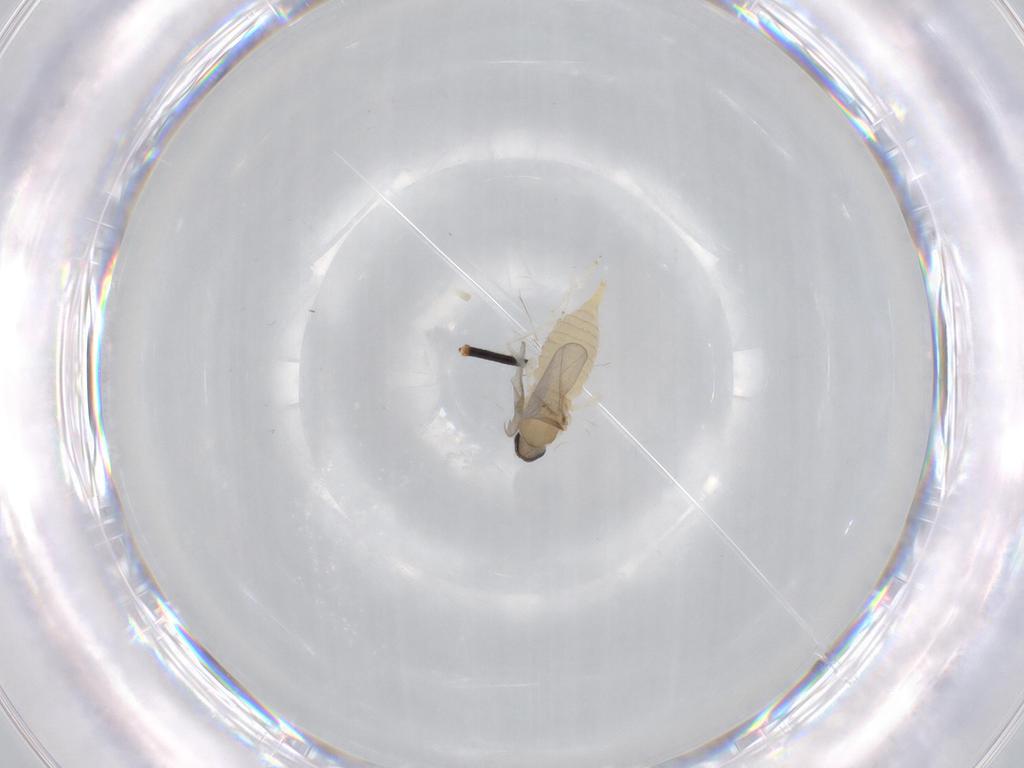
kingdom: Animalia
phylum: Arthropoda
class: Insecta
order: Diptera
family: Cecidomyiidae
